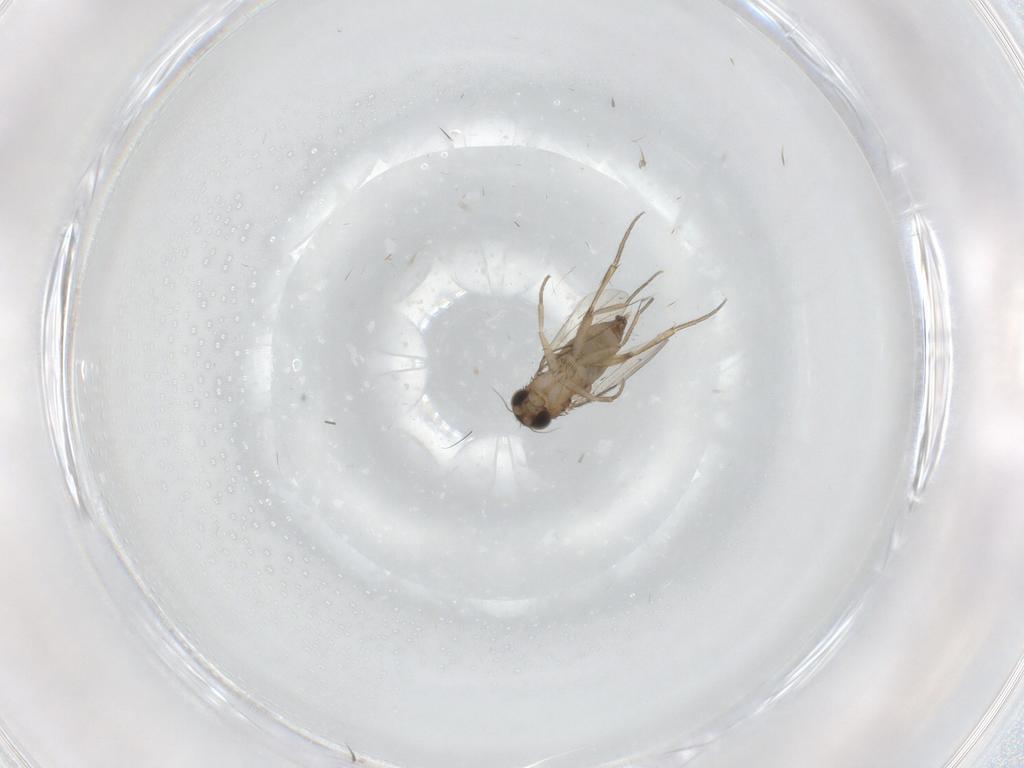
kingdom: Animalia
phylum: Arthropoda
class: Insecta
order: Diptera
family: Phoridae
